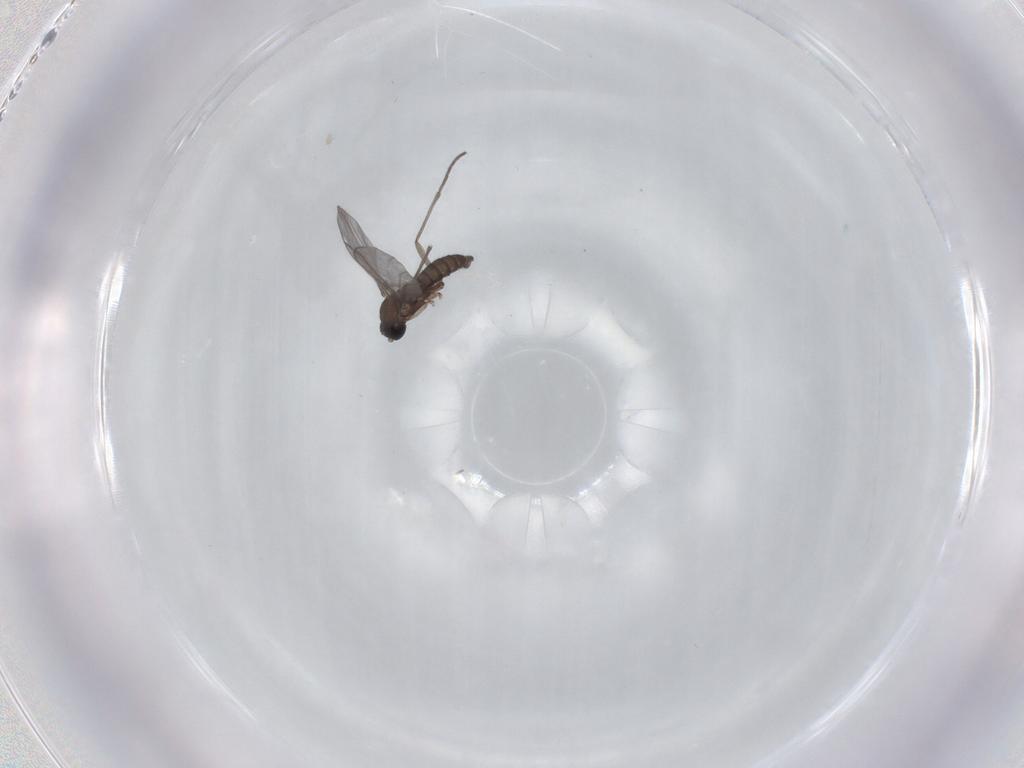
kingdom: Animalia
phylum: Arthropoda
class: Insecta
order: Diptera
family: Sciaridae
